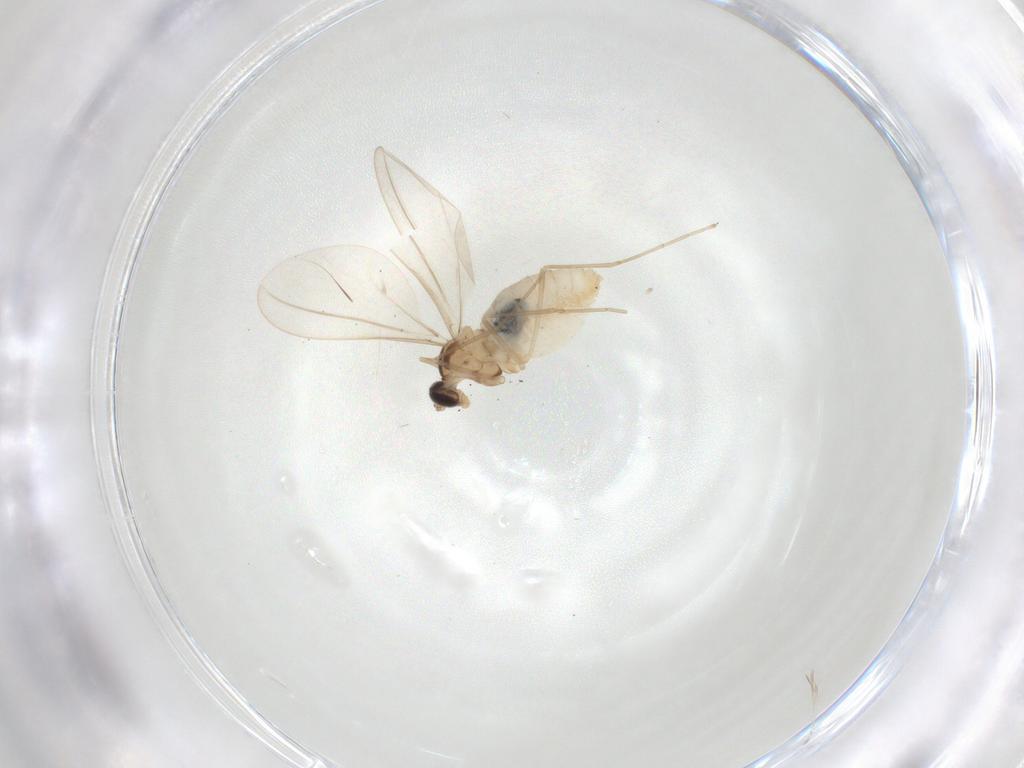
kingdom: Animalia
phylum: Arthropoda
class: Insecta
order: Diptera
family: Cecidomyiidae
